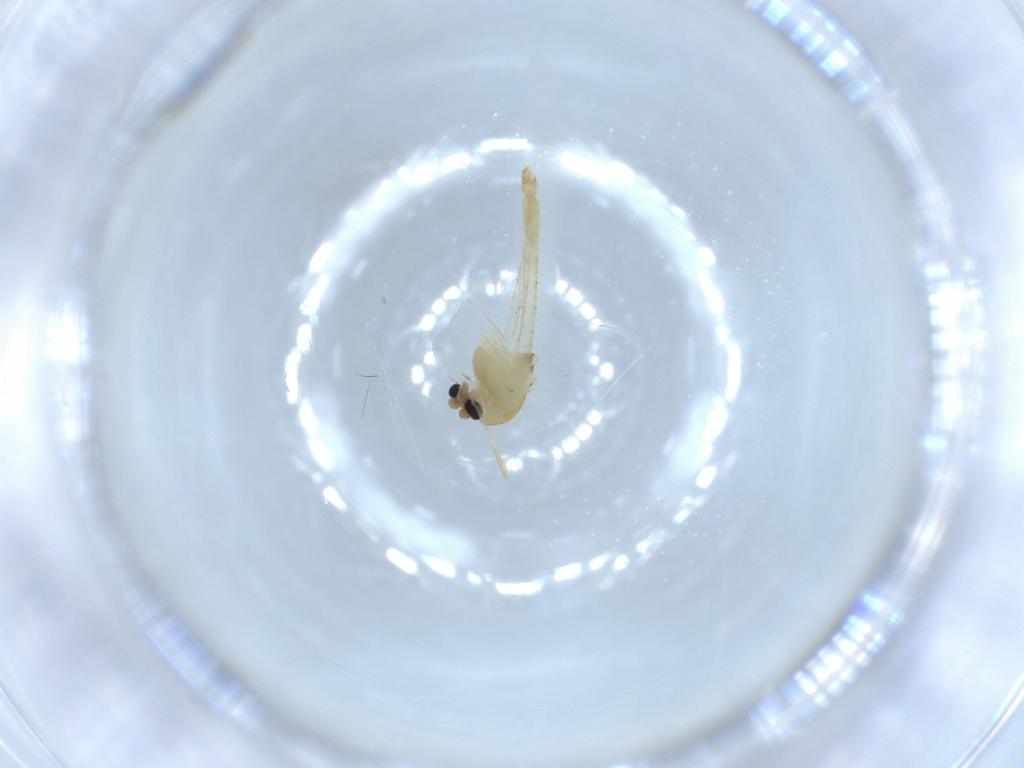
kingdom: Animalia
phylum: Arthropoda
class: Insecta
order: Diptera
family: Chironomidae
